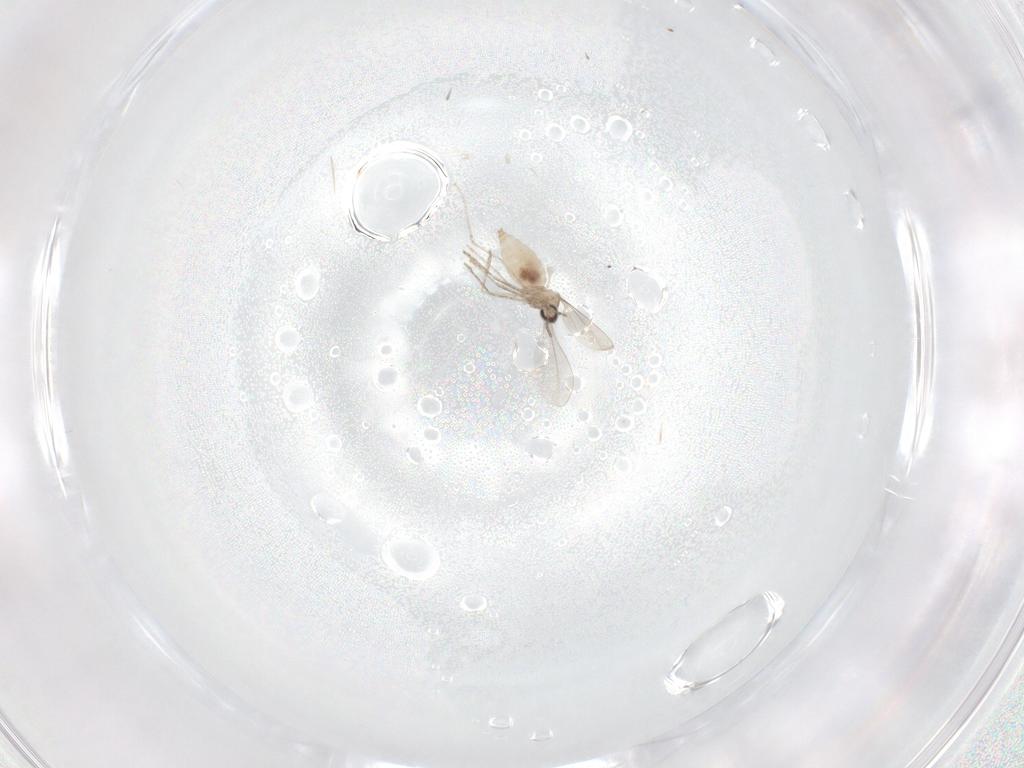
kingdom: Animalia
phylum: Arthropoda
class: Insecta
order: Diptera
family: Cecidomyiidae
